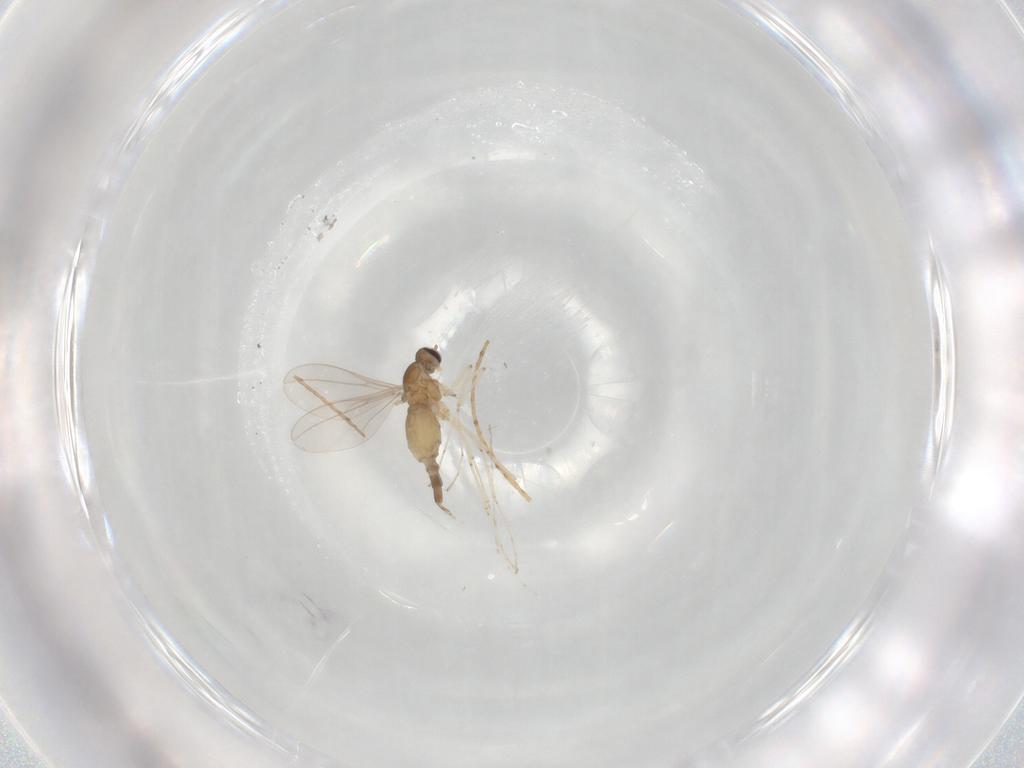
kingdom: Animalia
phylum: Arthropoda
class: Insecta
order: Diptera
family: Ceratopogonidae
